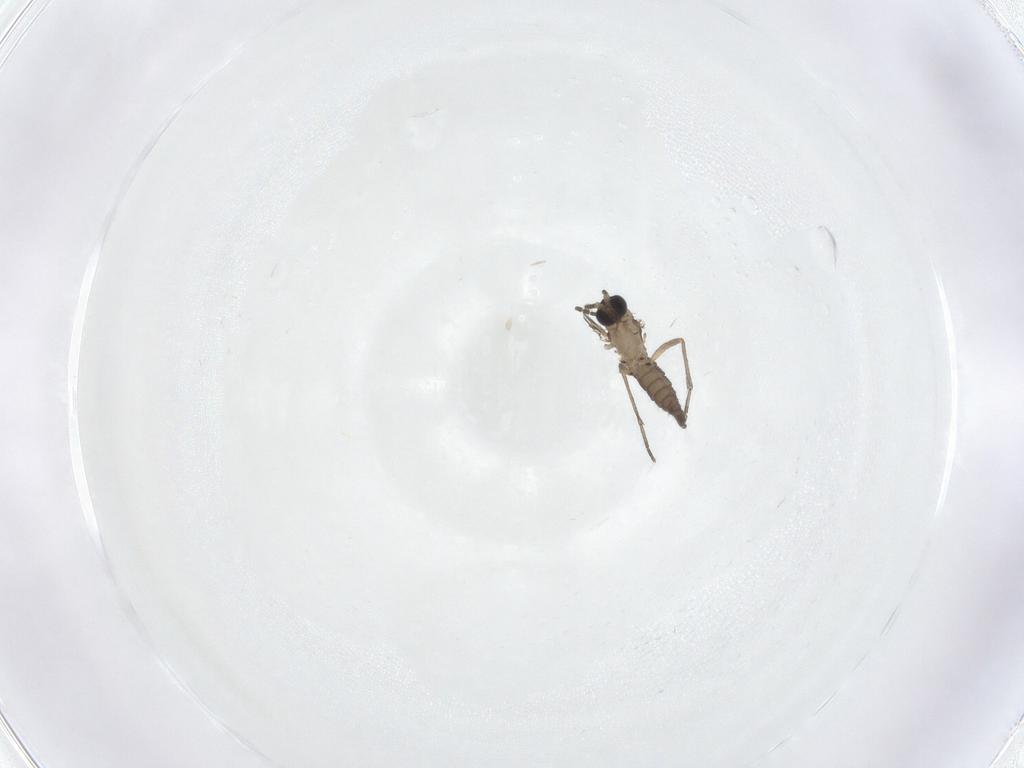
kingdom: Animalia
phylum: Arthropoda
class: Insecta
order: Diptera
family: Sciaridae
